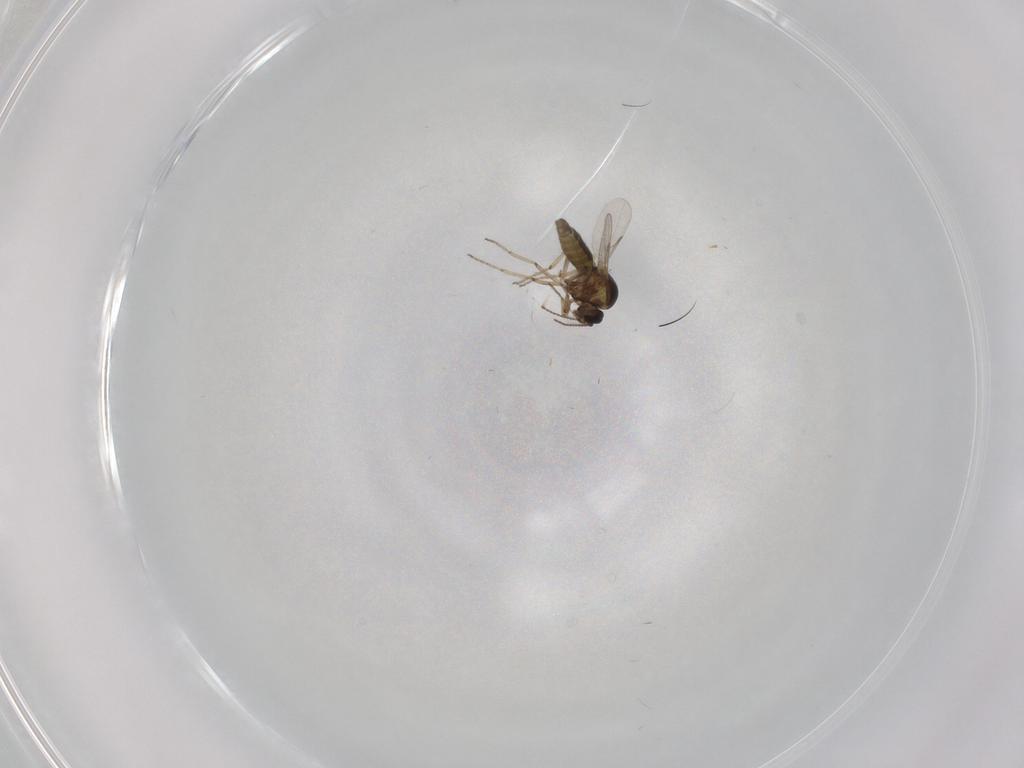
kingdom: Animalia
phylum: Arthropoda
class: Insecta
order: Diptera
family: Ceratopogonidae
